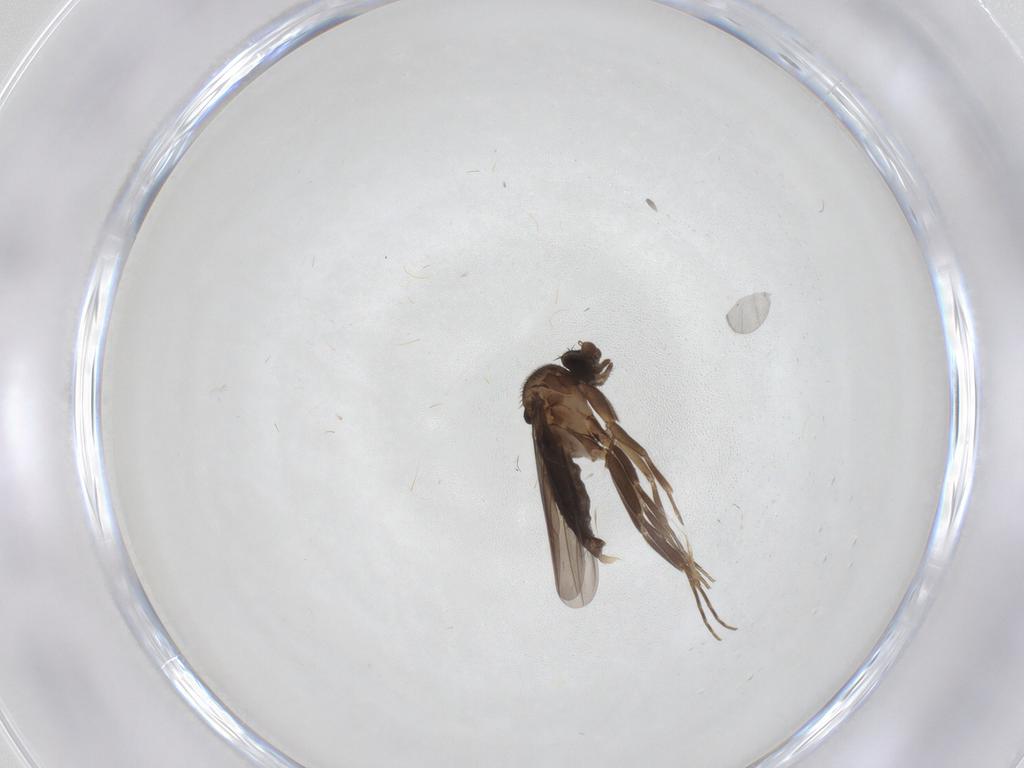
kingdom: Animalia
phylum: Arthropoda
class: Insecta
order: Diptera
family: Chironomidae
